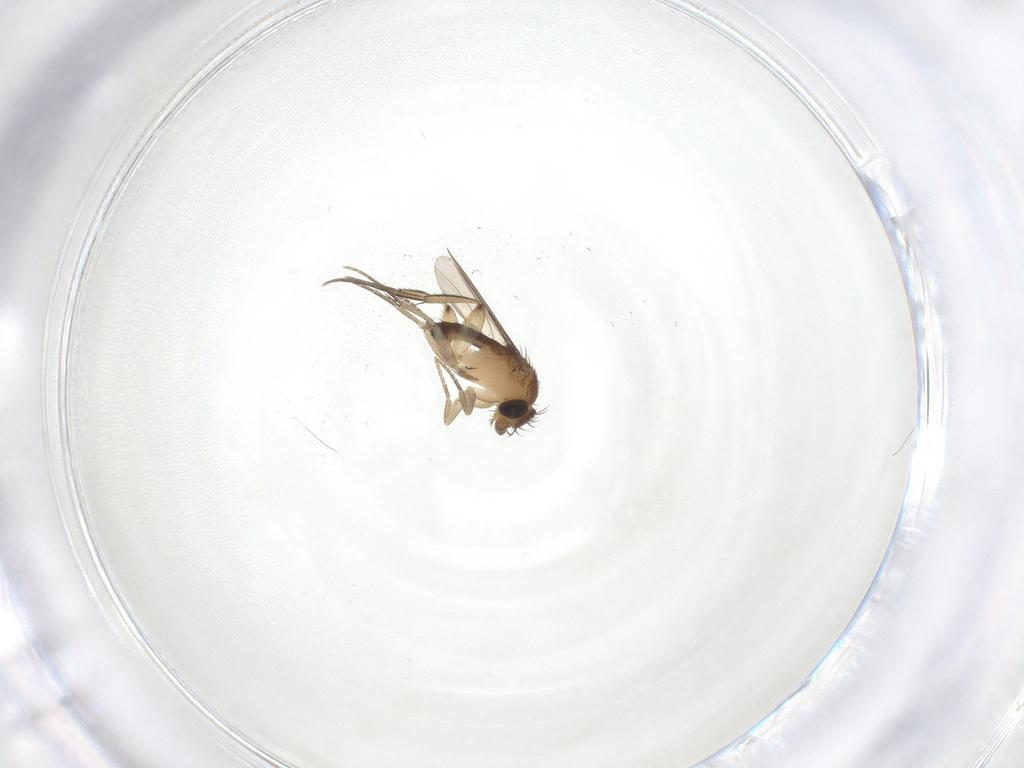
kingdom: Animalia
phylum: Arthropoda
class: Insecta
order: Diptera
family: Phoridae
